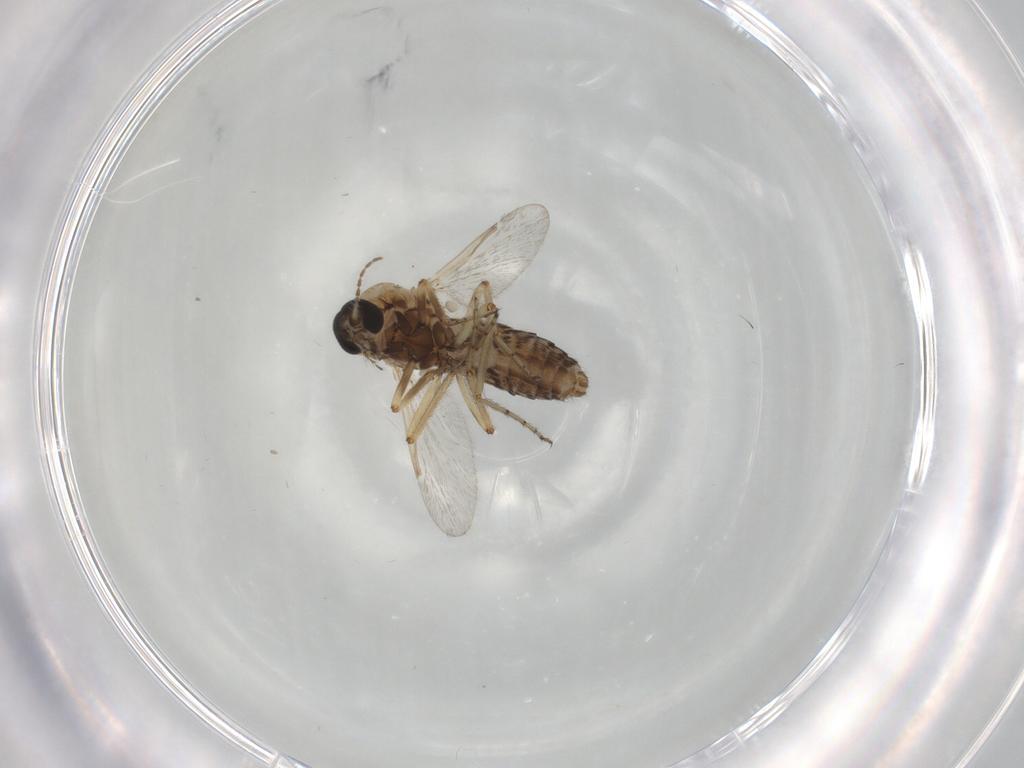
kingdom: Animalia
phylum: Arthropoda
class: Insecta
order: Diptera
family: Ceratopogonidae
